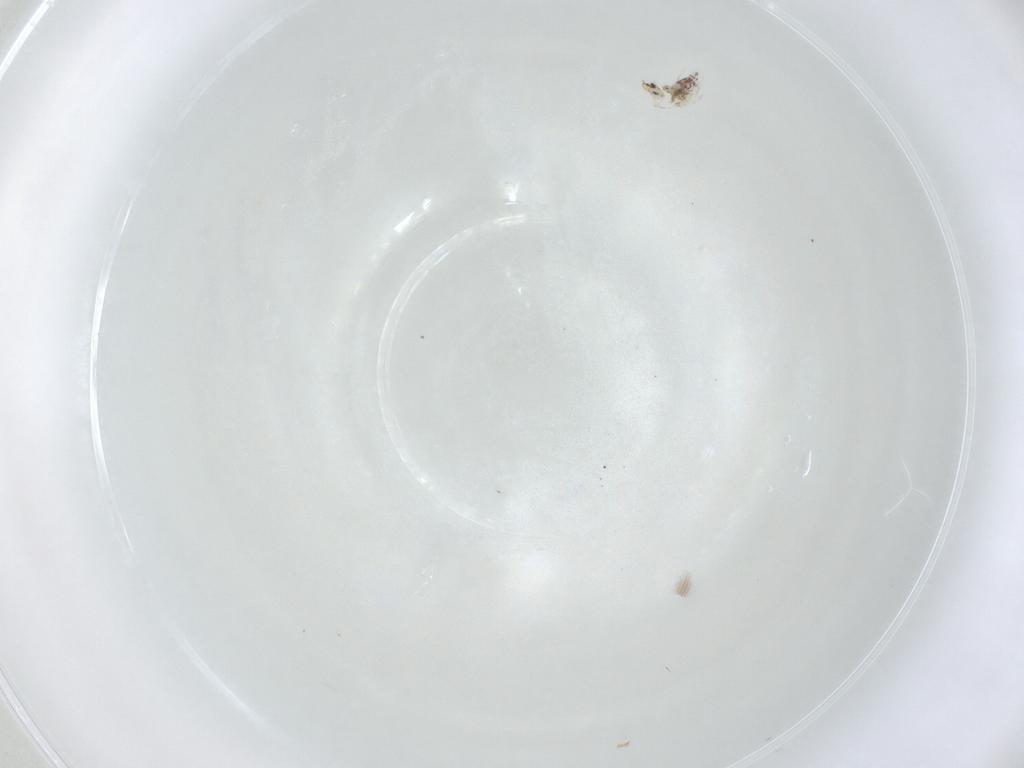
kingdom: Animalia
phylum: Arthropoda
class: Collembola
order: Symphypleona
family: Bourletiellidae
